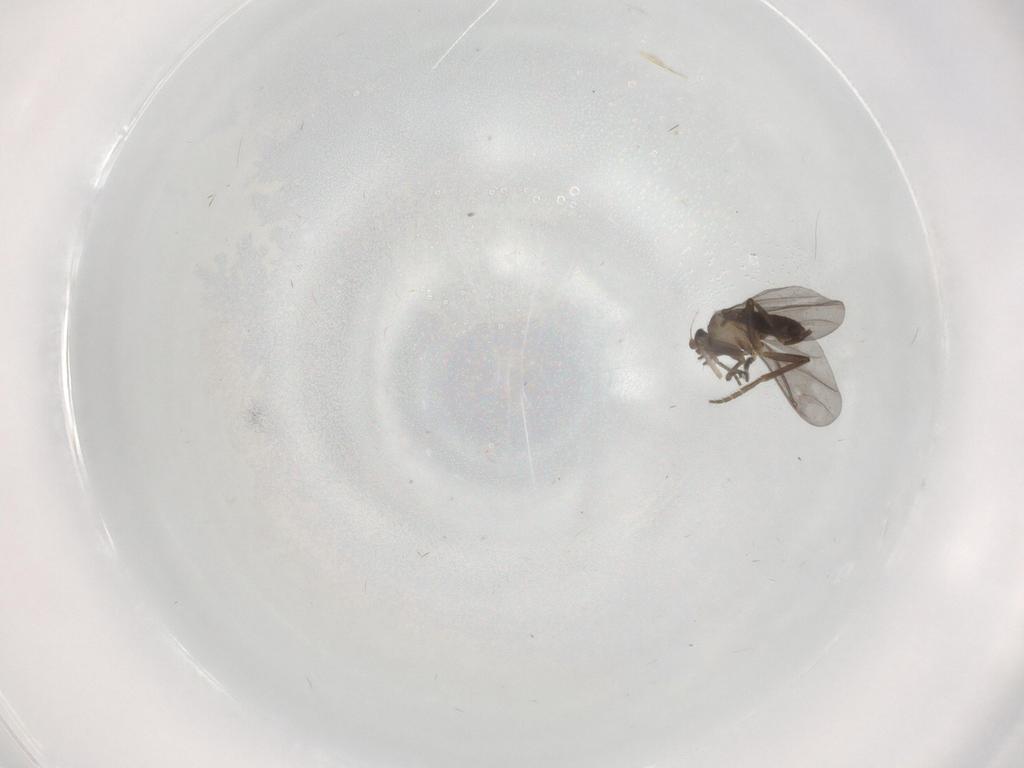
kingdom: Animalia
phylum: Arthropoda
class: Insecta
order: Diptera
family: Phoridae
